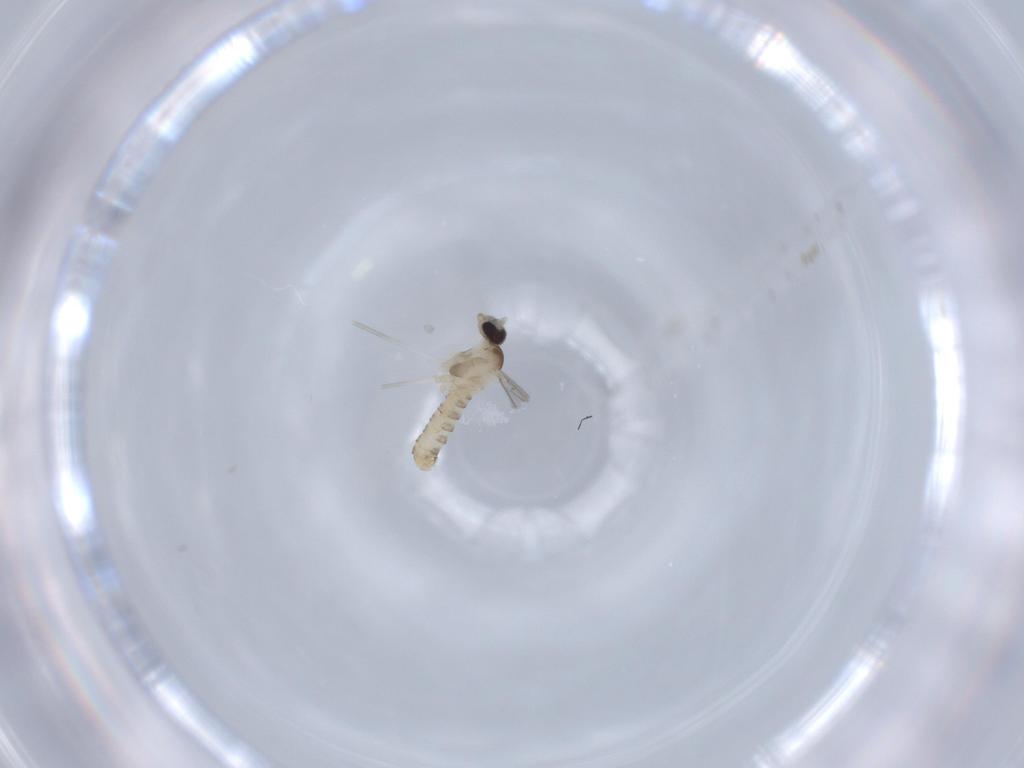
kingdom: Animalia
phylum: Arthropoda
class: Insecta
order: Diptera
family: Cecidomyiidae
